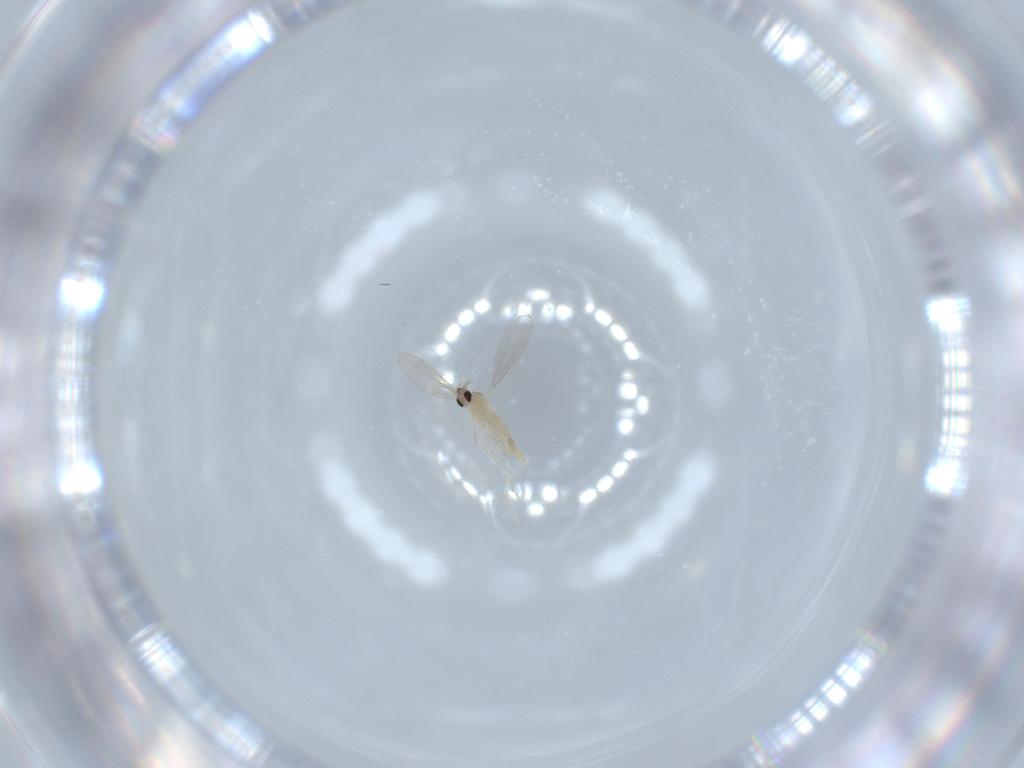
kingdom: Animalia
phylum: Arthropoda
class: Insecta
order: Diptera
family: Cecidomyiidae
